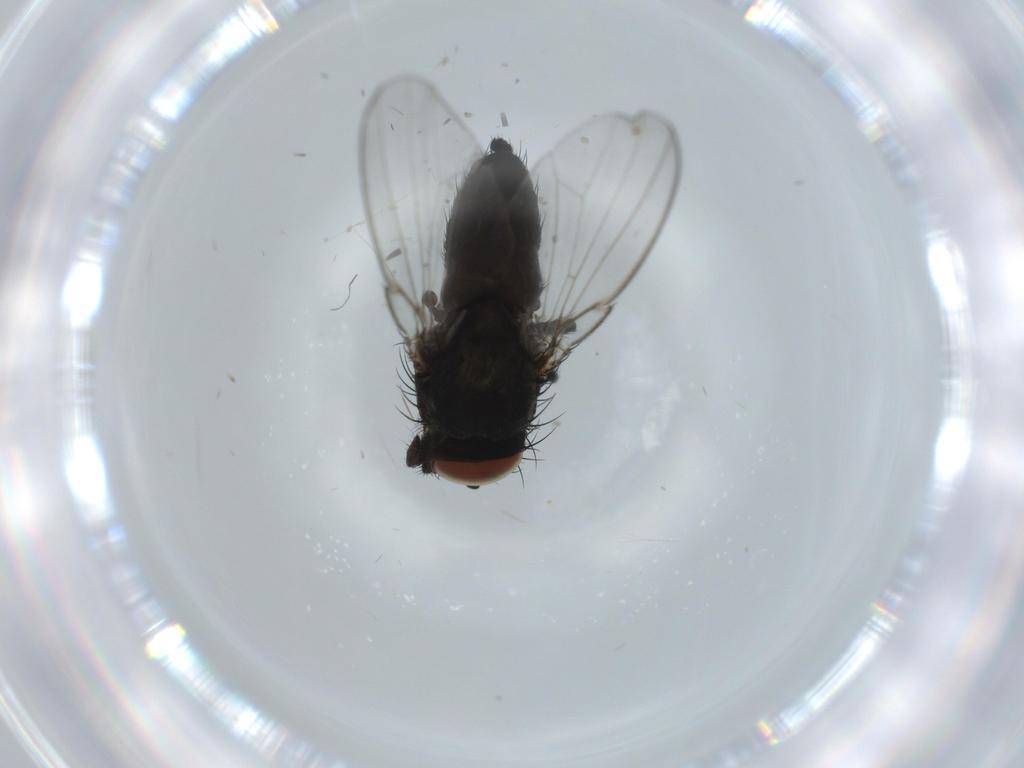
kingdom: Animalia
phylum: Arthropoda
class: Insecta
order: Diptera
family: Milichiidae
